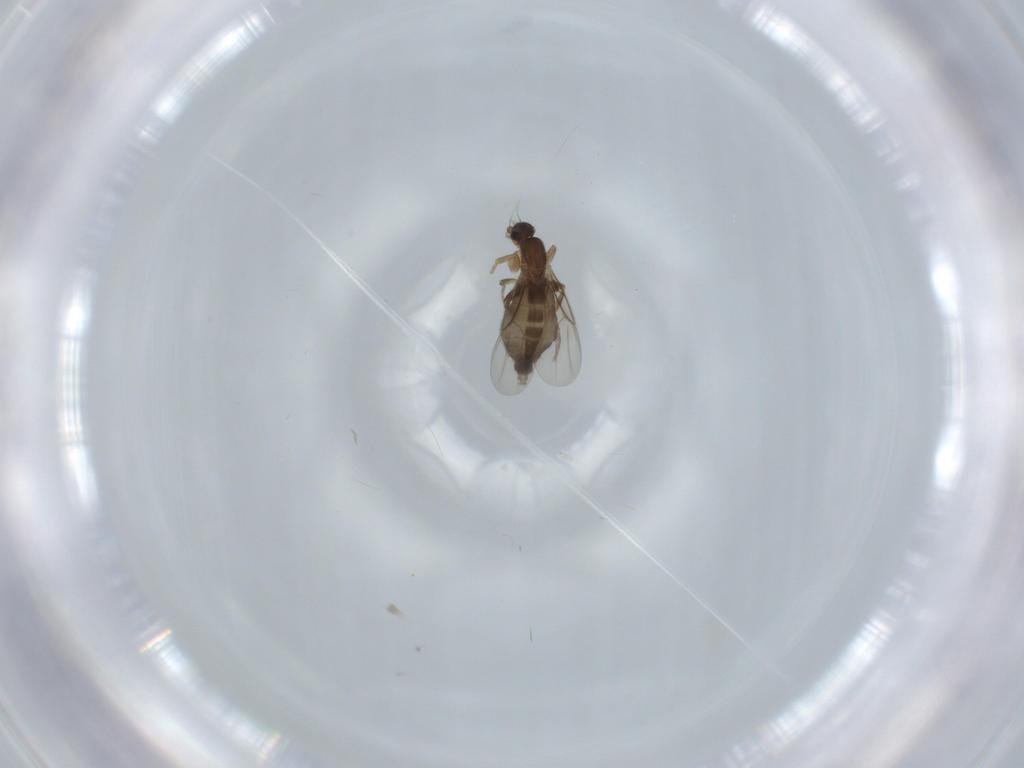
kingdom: Animalia
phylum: Arthropoda
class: Insecta
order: Diptera
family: Phoridae
